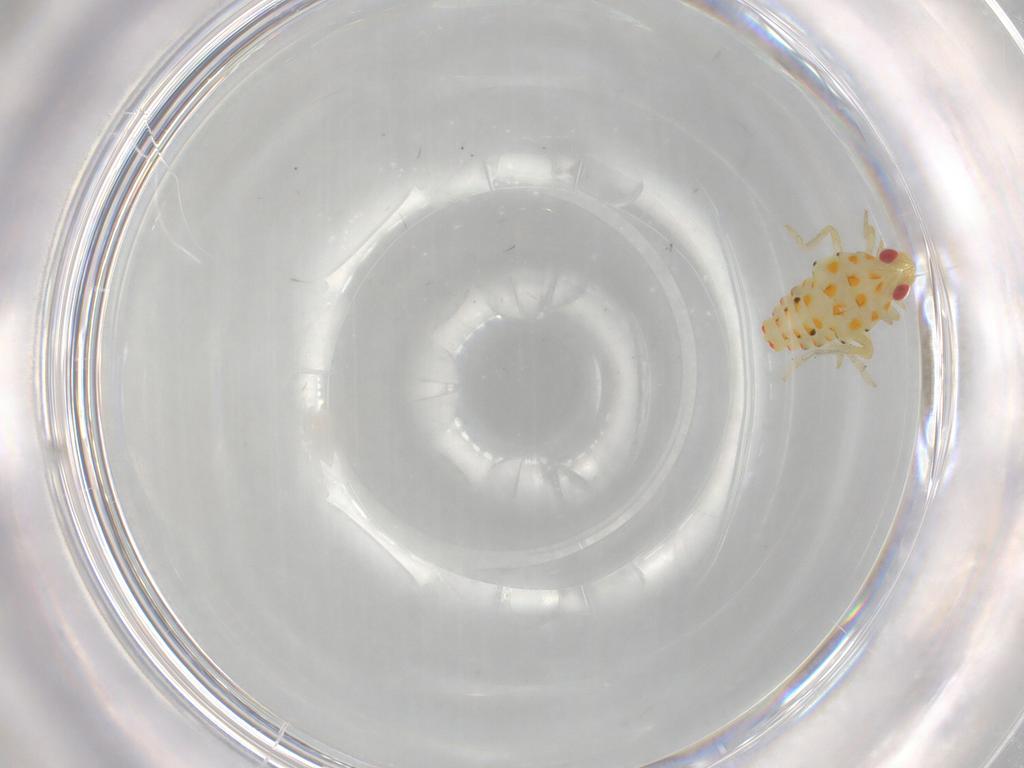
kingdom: Animalia
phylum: Arthropoda
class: Insecta
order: Hemiptera
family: Tropiduchidae
